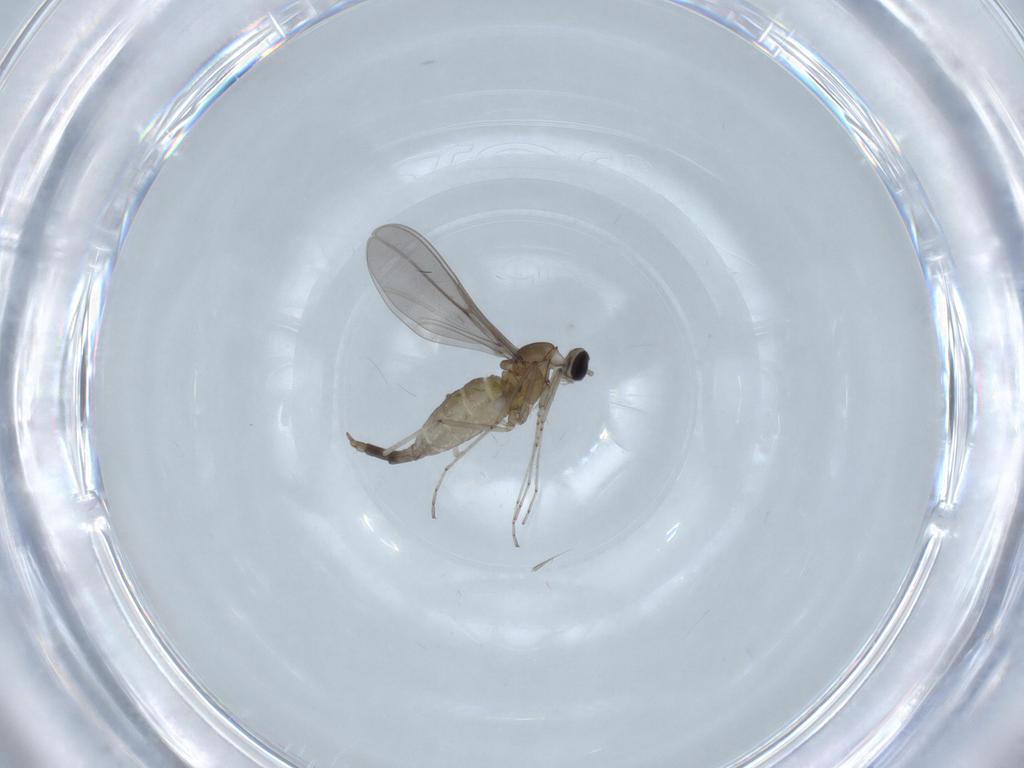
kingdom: Animalia
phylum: Arthropoda
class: Insecta
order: Diptera
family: Cecidomyiidae
